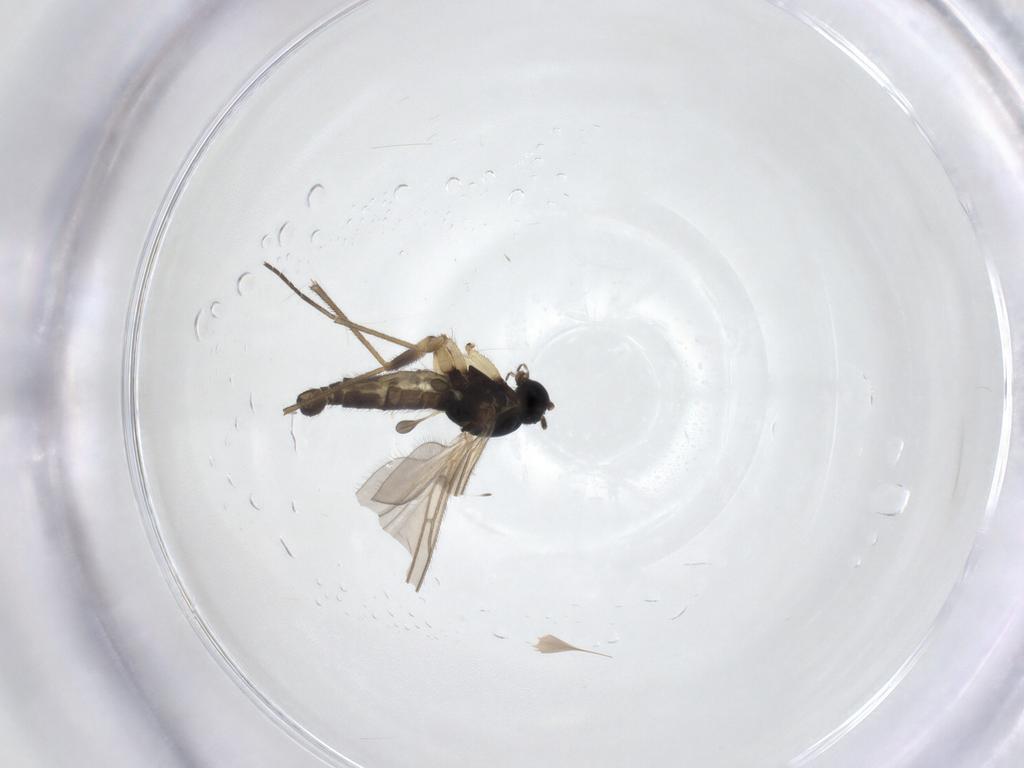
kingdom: Animalia
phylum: Arthropoda
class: Insecta
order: Diptera
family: Sciaridae
